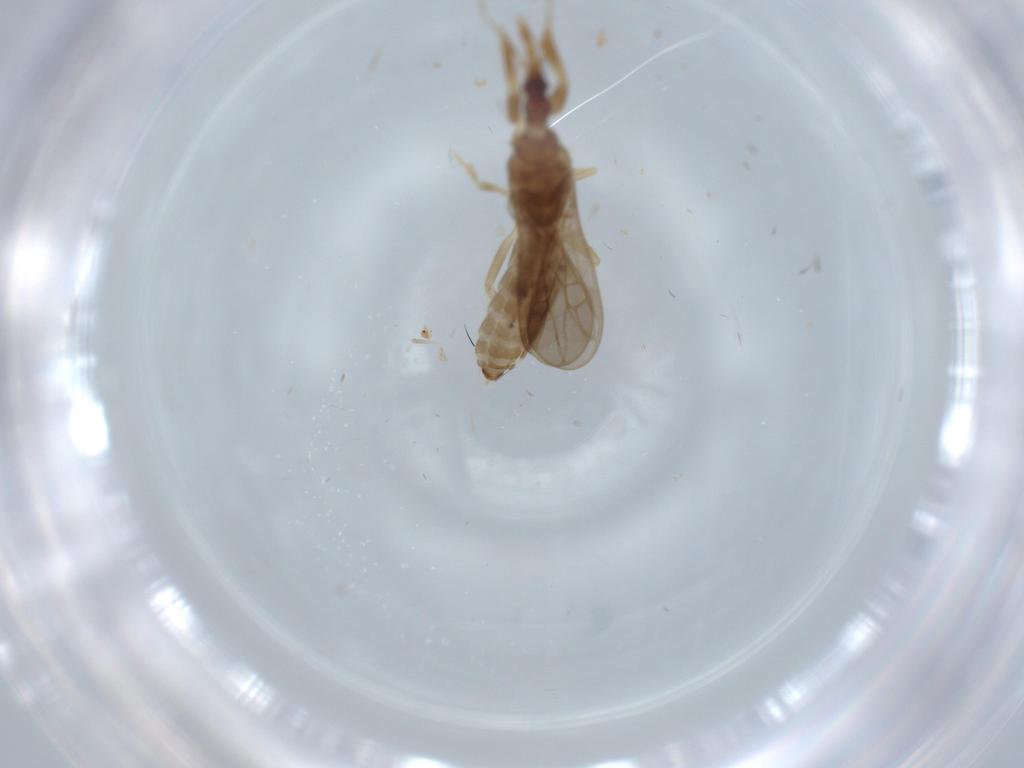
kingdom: Animalia
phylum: Arthropoda
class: Insecta
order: Hemiptera
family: Enicocephalidae
